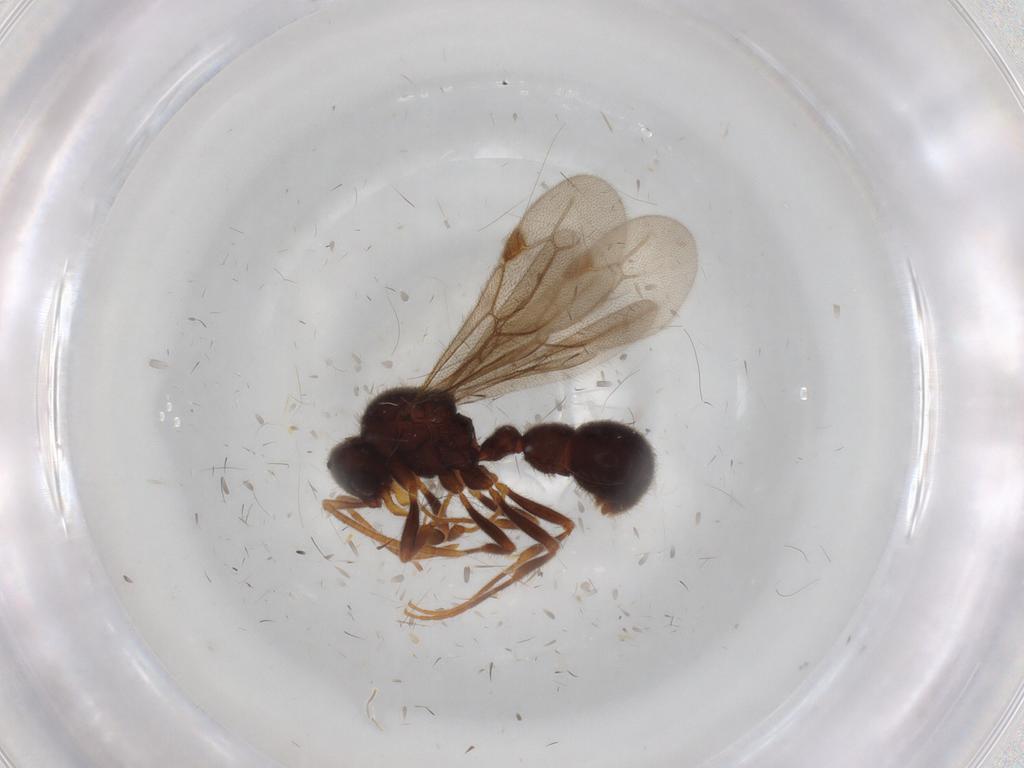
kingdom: Animalia
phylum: Arthropoda
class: Insecta
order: Hymenoptera
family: Formicidae
